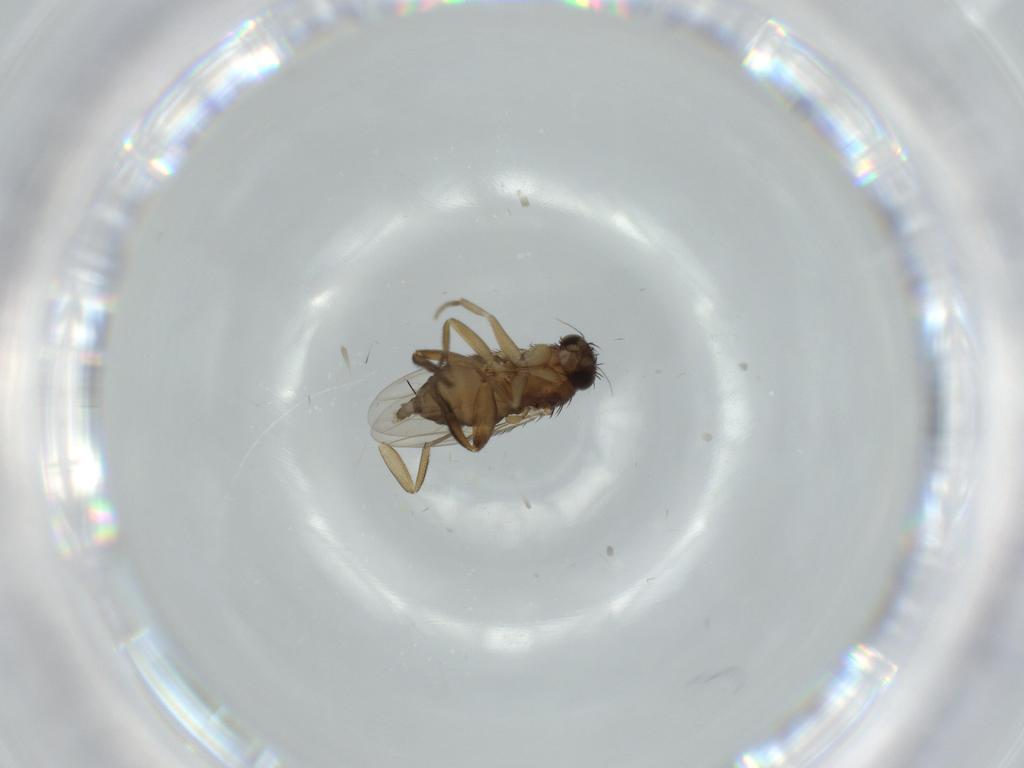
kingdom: Animalia
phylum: Arthropoda
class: Insecta
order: Diptera
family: Phoridae
